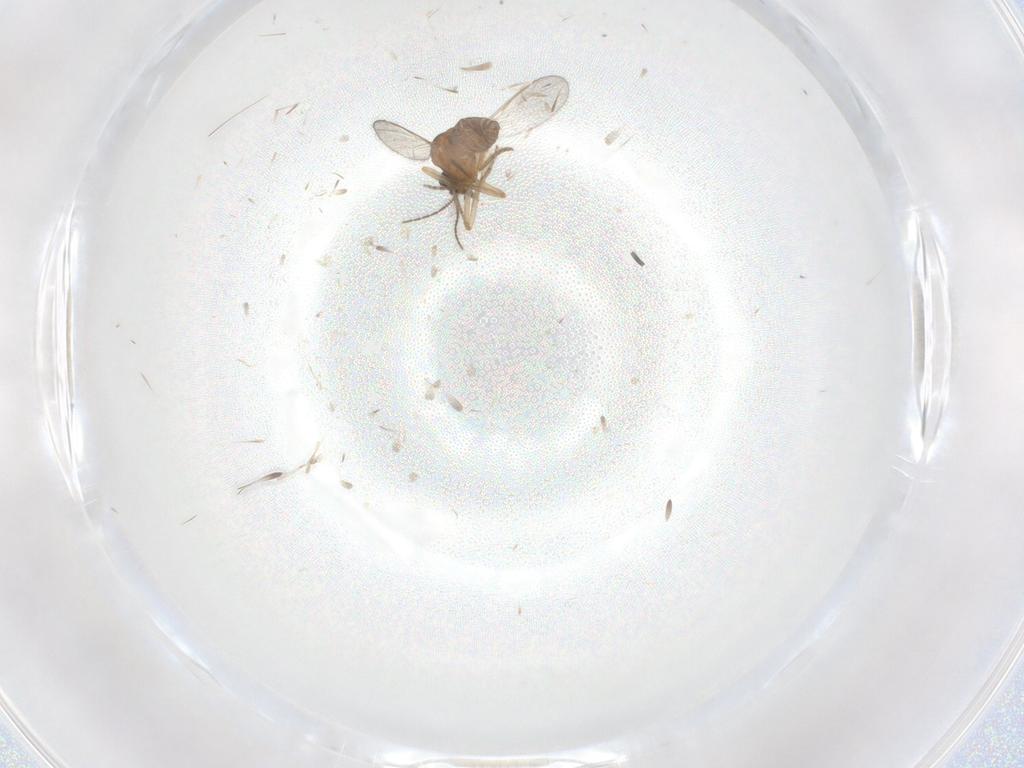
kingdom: Animalia
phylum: Arthropoda
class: Insecta
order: Diptera
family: Ceratopogonidae
